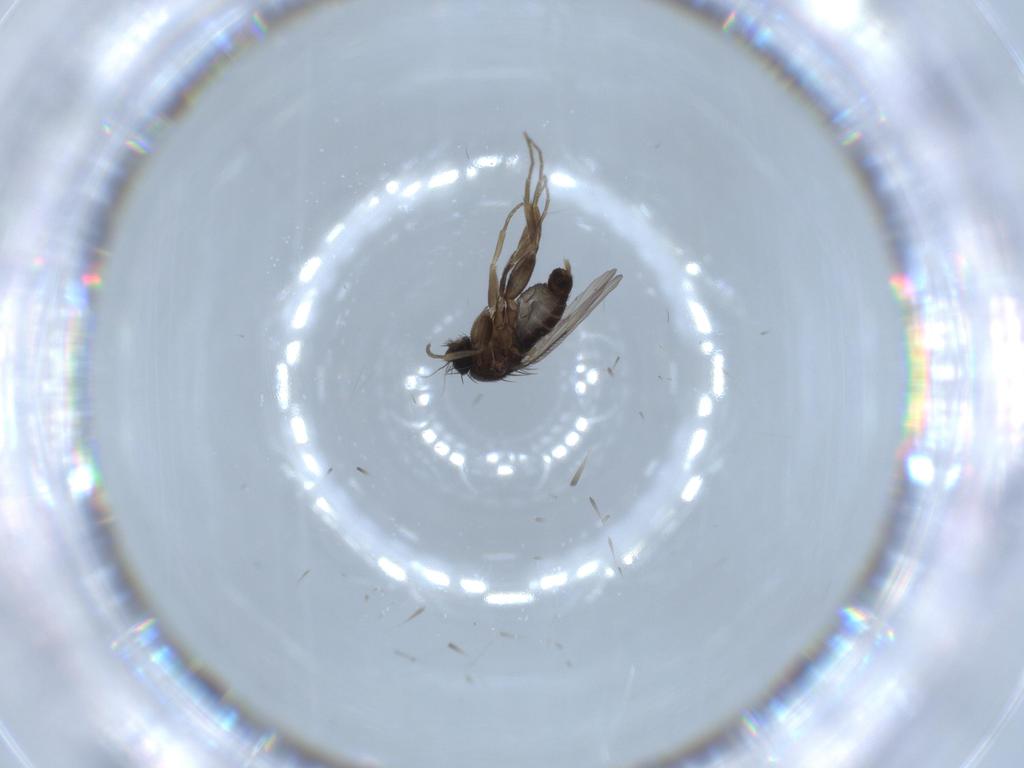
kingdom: Animalia
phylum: Arthropoda
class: Insecta
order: Diptera
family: Phoridae
